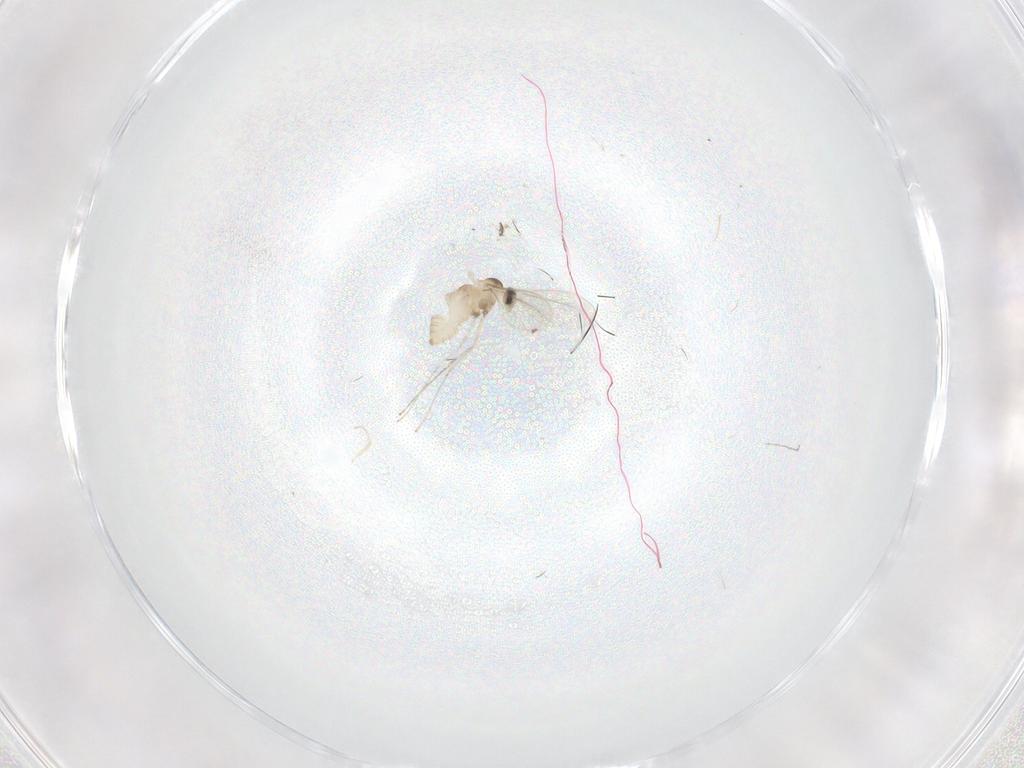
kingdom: Animalia
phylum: Arthropoda
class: Insecta
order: Diptera
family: Cecidomyiidae
